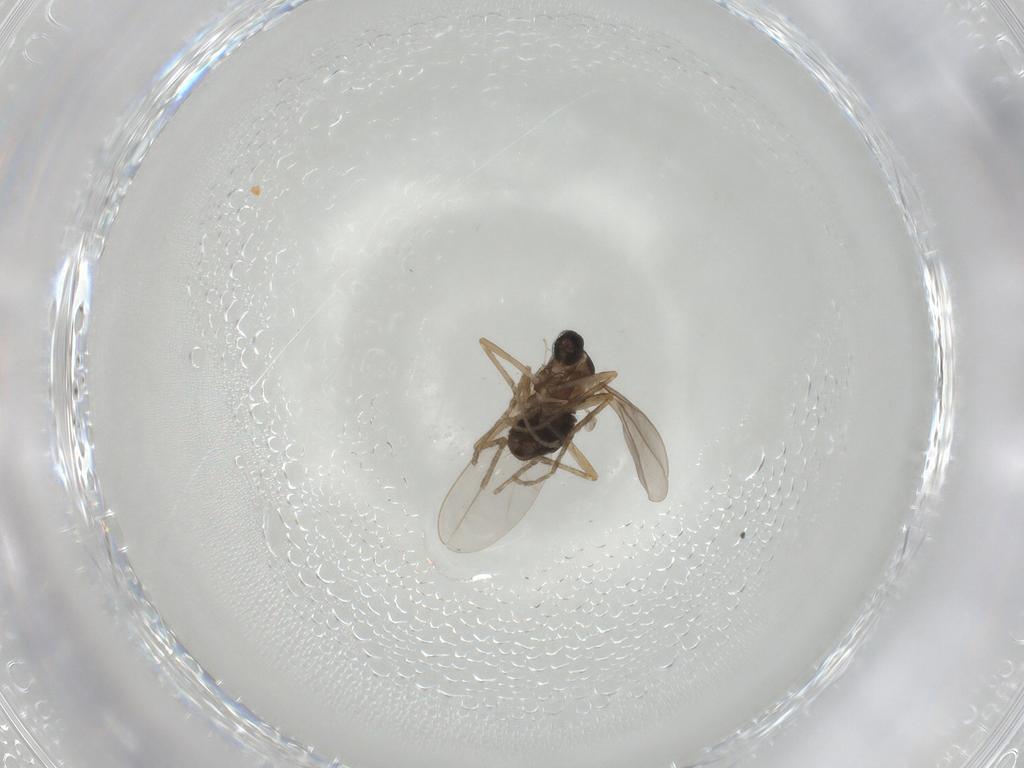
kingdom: Animalia
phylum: Arthropoda
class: Insecta
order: Diptera
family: Cecidomyiidae
